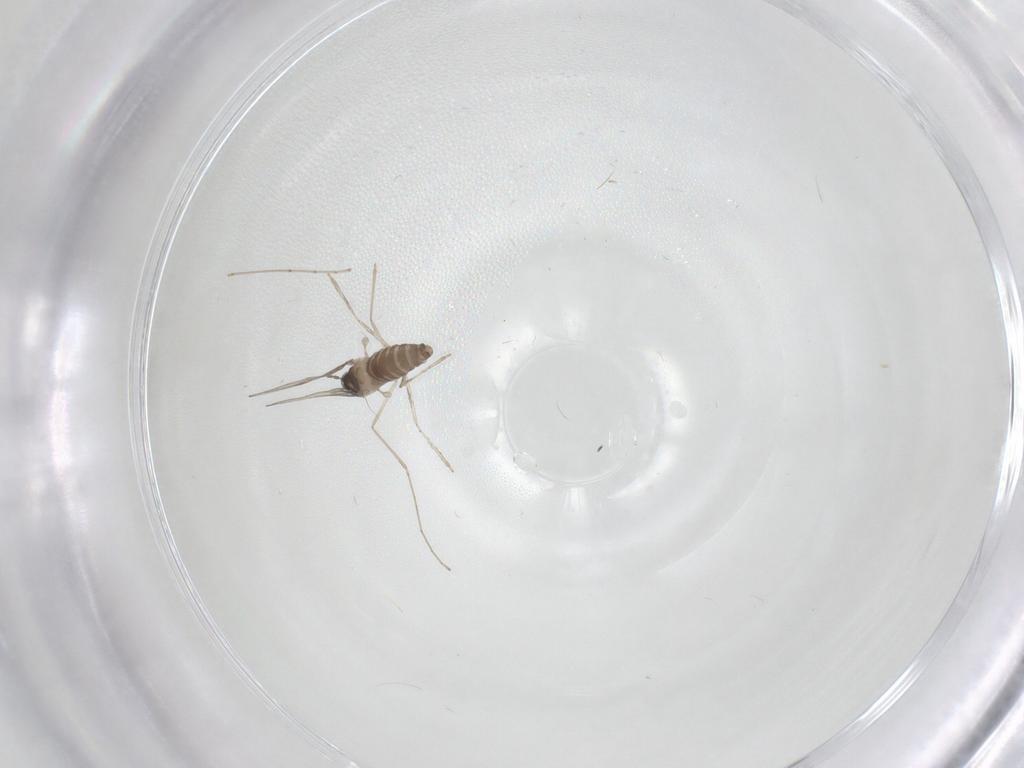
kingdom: Animalia
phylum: Arthropoda
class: Insecta
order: Diptera
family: Cecidomyiidae
